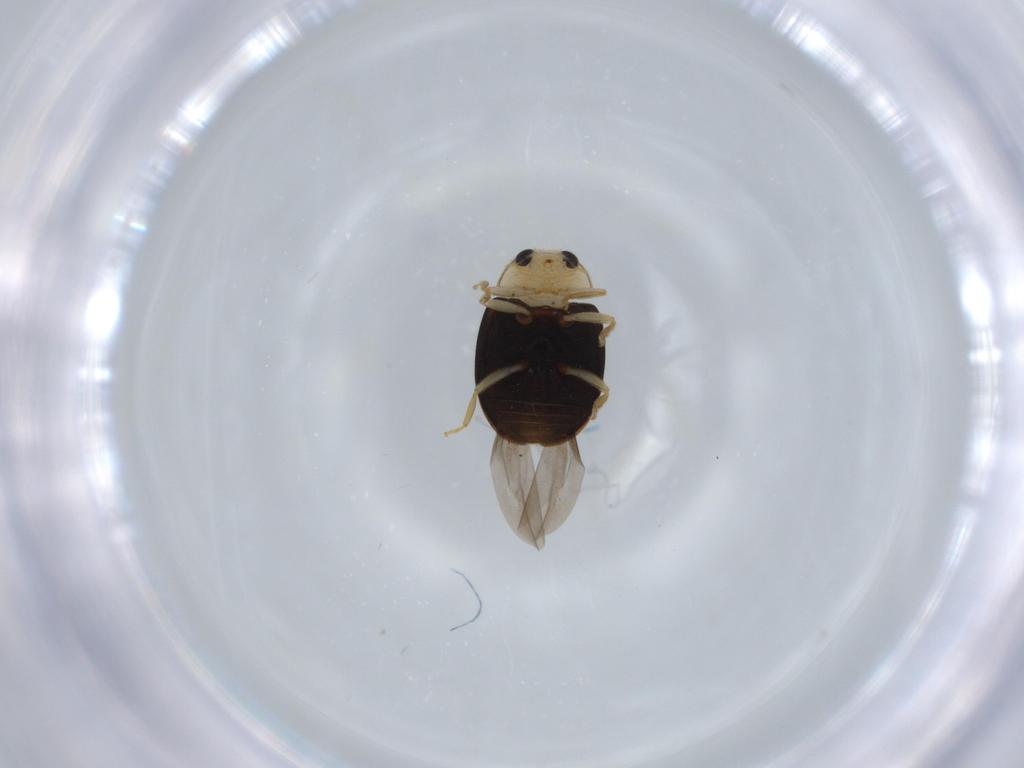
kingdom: Animalia
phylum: Arthropoda
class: Insecta
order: Coleoptera
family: Coccinellidae
